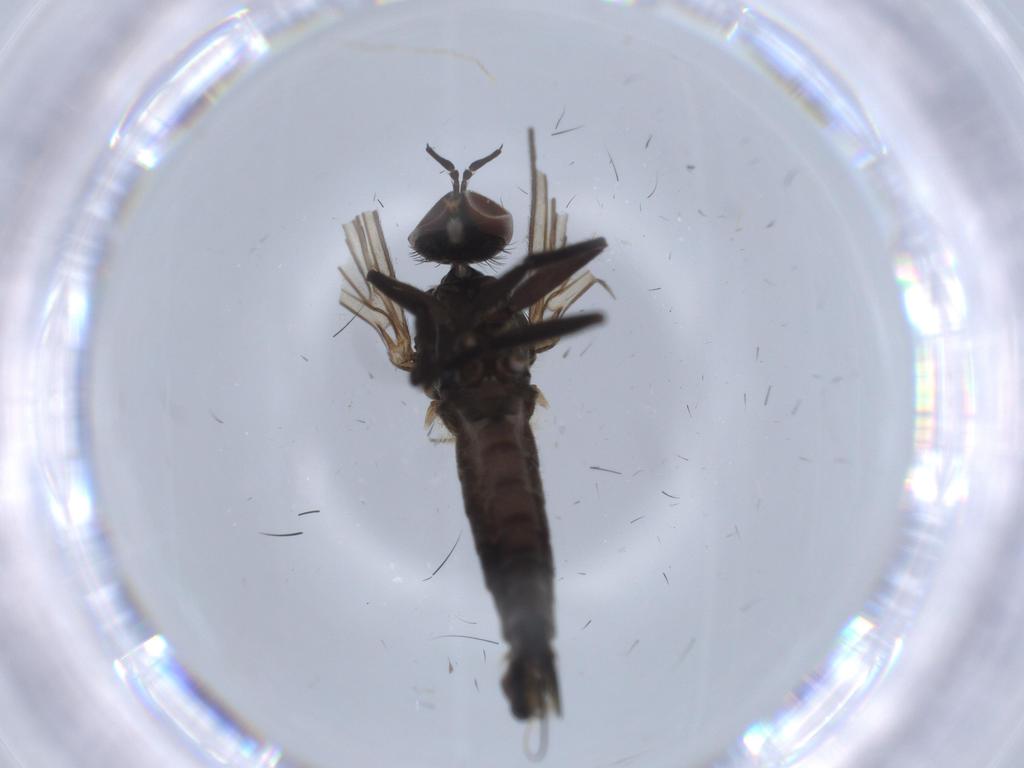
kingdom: Animalia
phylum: Arthropoda
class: Insecta
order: Diptera
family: Empididae
